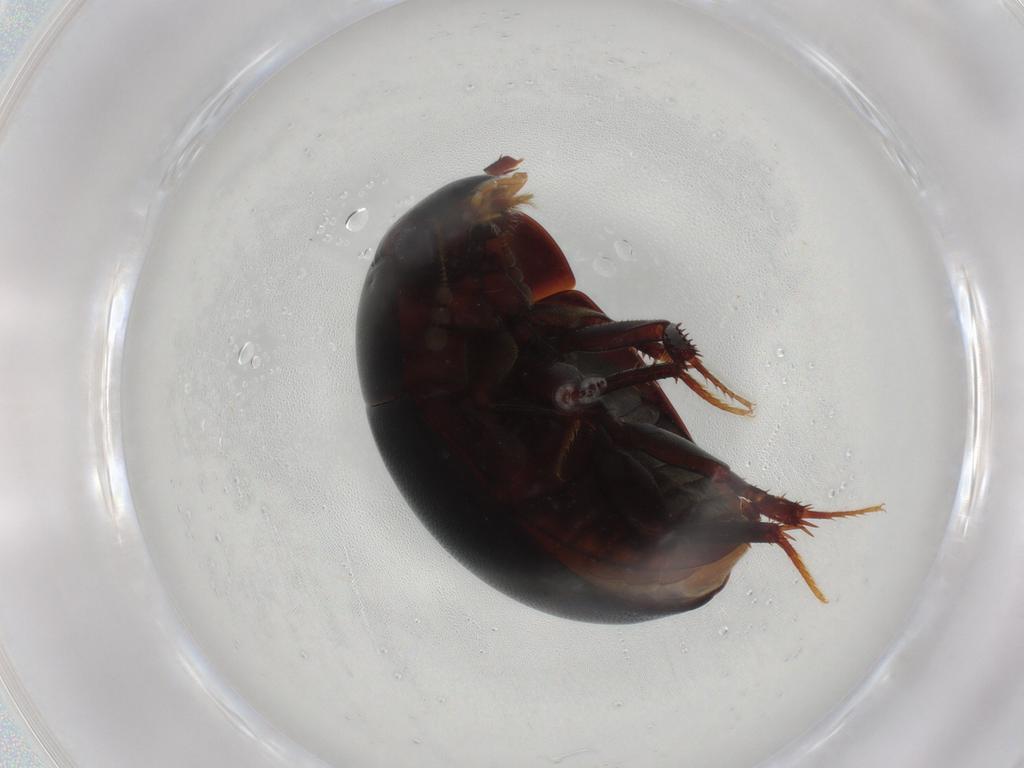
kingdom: Animalia
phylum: Arthropoda
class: Insecta
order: Coleoptera
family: Hydrophilidae
